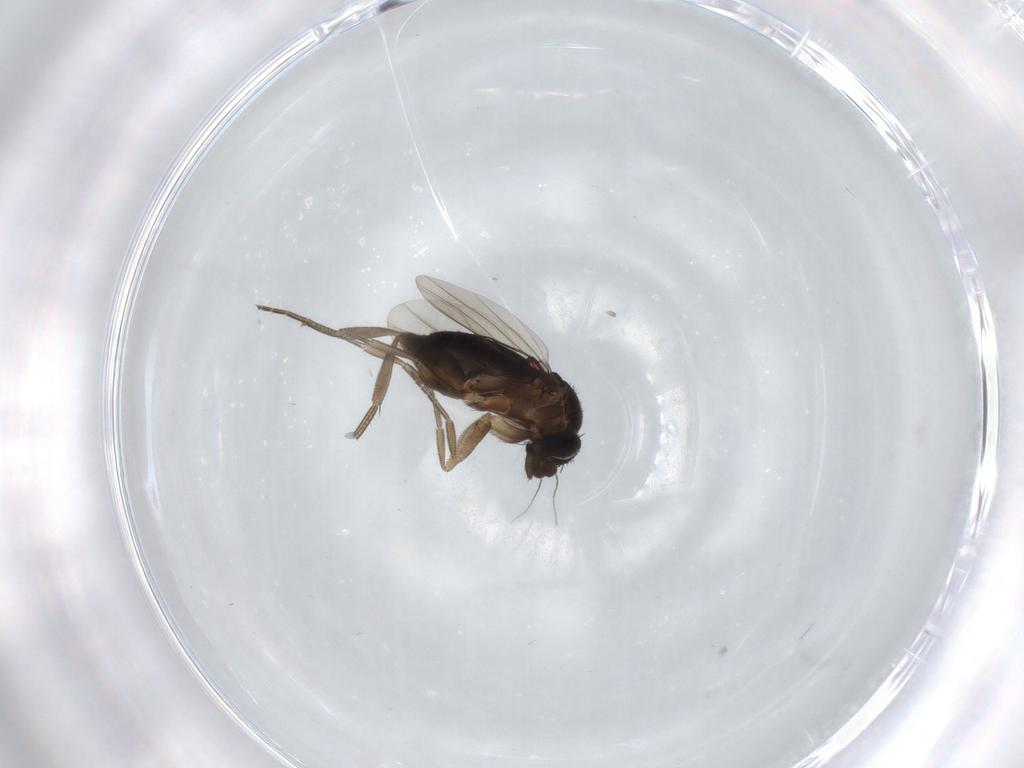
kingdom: Animalia
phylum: Arthropoda
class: Insecta
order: Diptera
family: Phoridae
